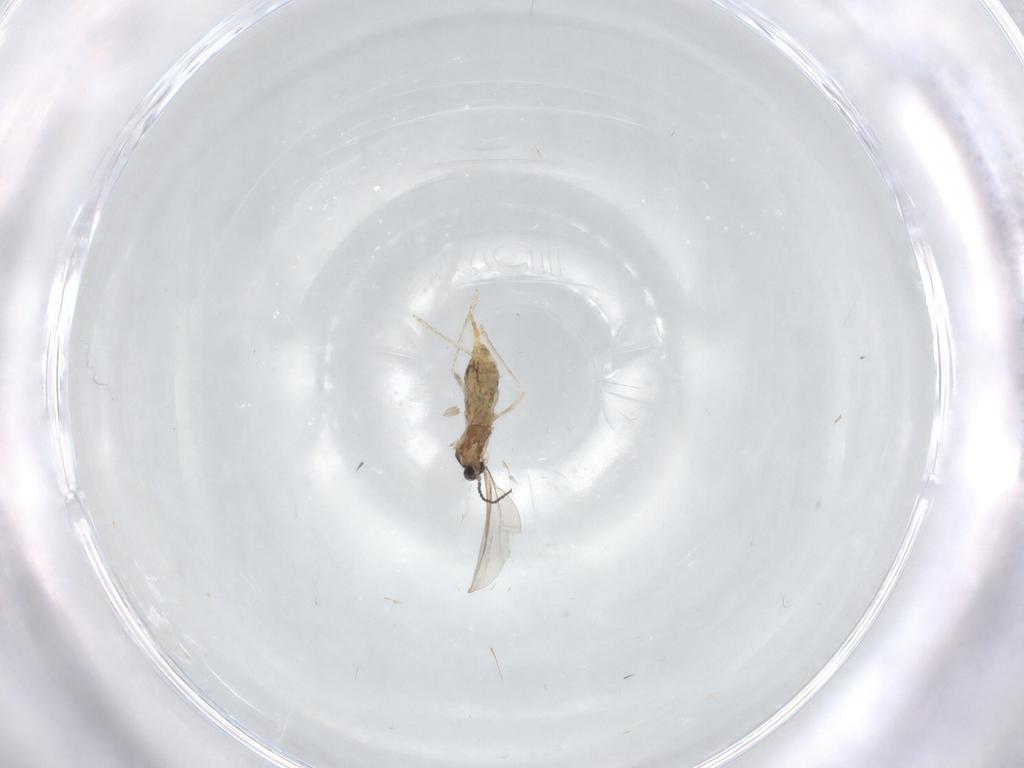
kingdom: Animalia
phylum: Arthropoda
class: Insecta
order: Diptera
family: Cecidomyiidae
